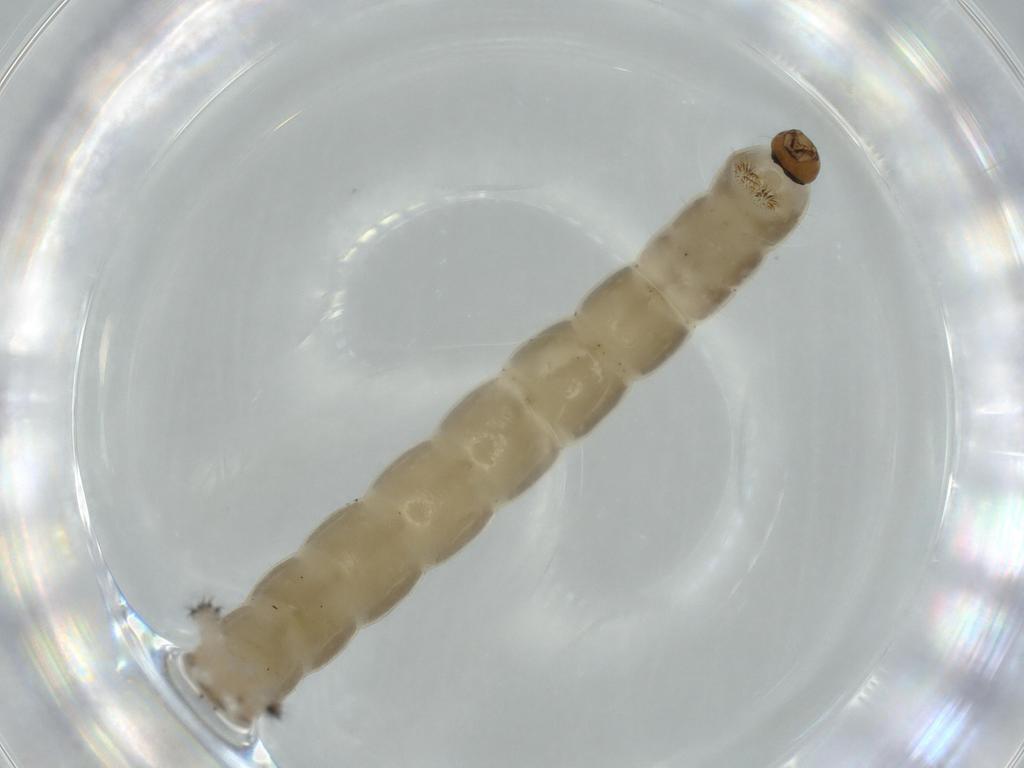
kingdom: Animalia
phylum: Arthropoda
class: Insecta
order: Diptera
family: Chironomidae
